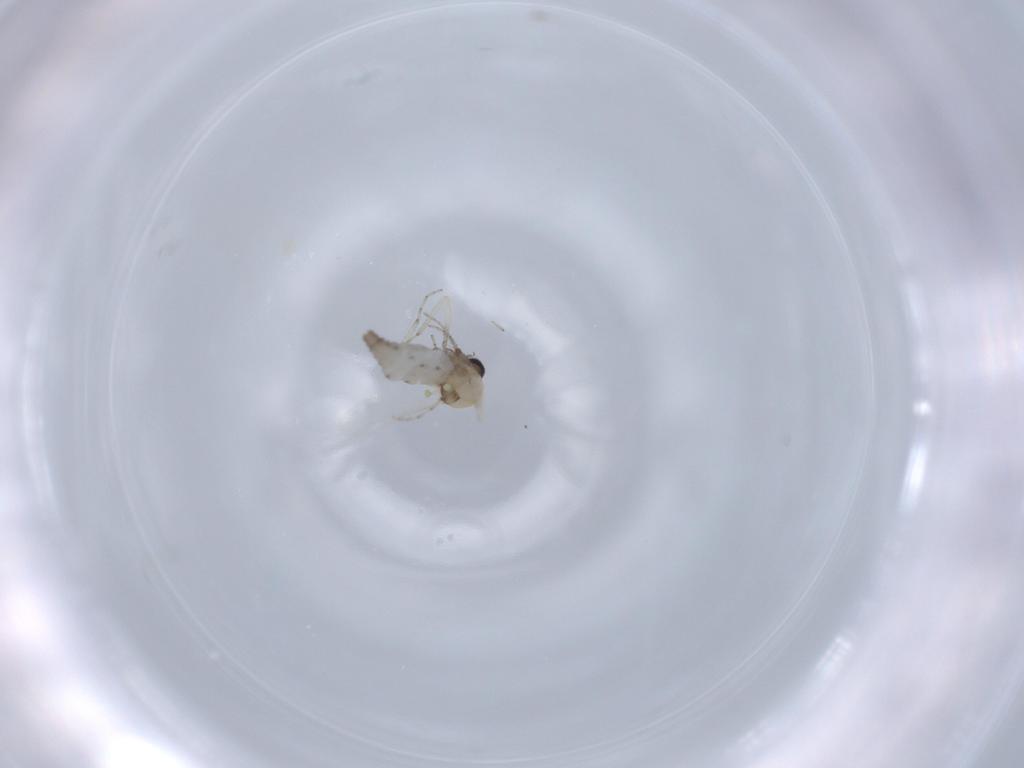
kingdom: Animalia
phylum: Arthropoda
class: Insecta
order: Diptera
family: Ceratopogonidae
